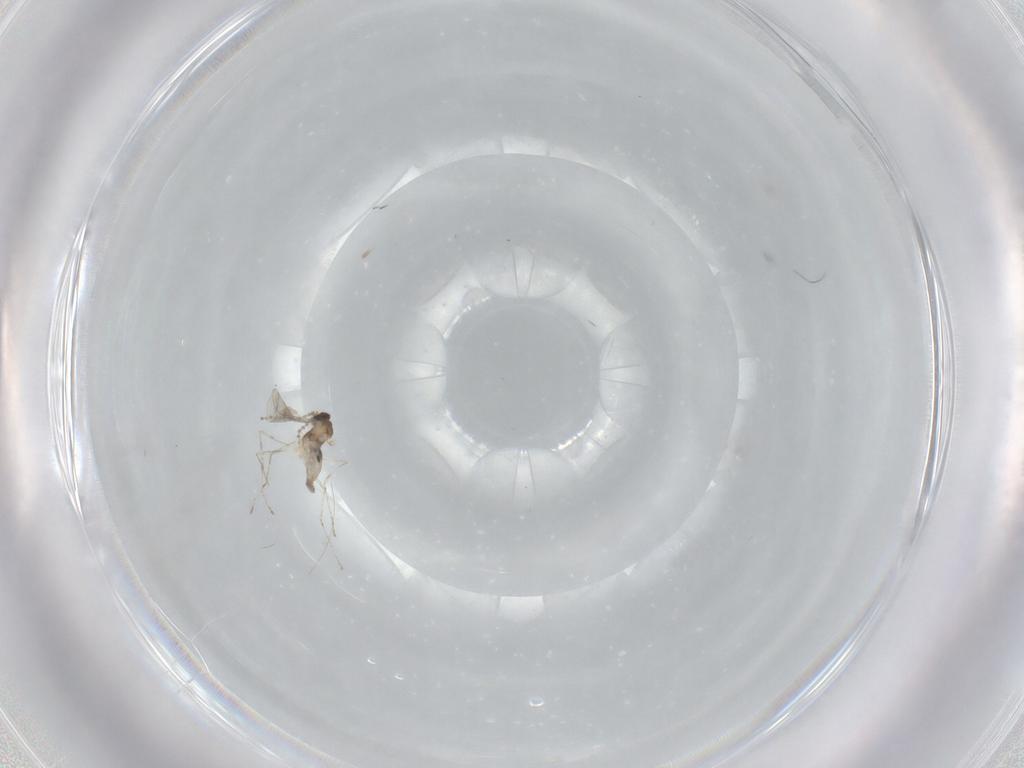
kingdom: Animalia
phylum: Arthropoda
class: Insecta
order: Diptera
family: Cecidomyiidae
